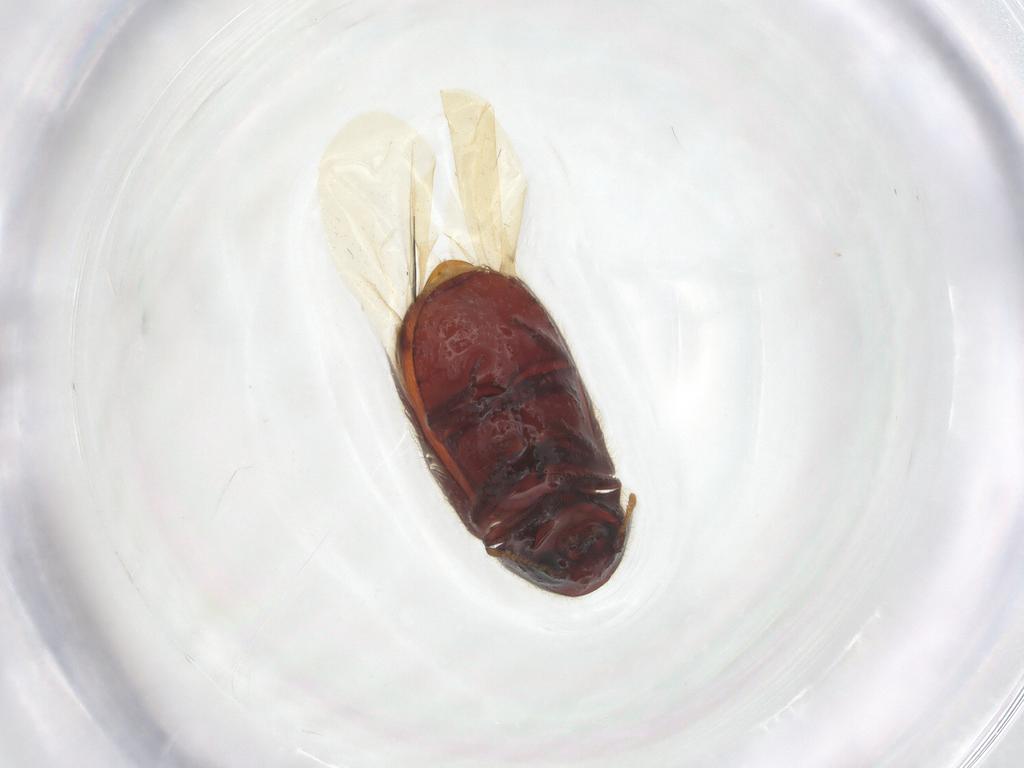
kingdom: Animalia
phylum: Arthropoda
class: Insecta
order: Coleoptera
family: Ptinidae
